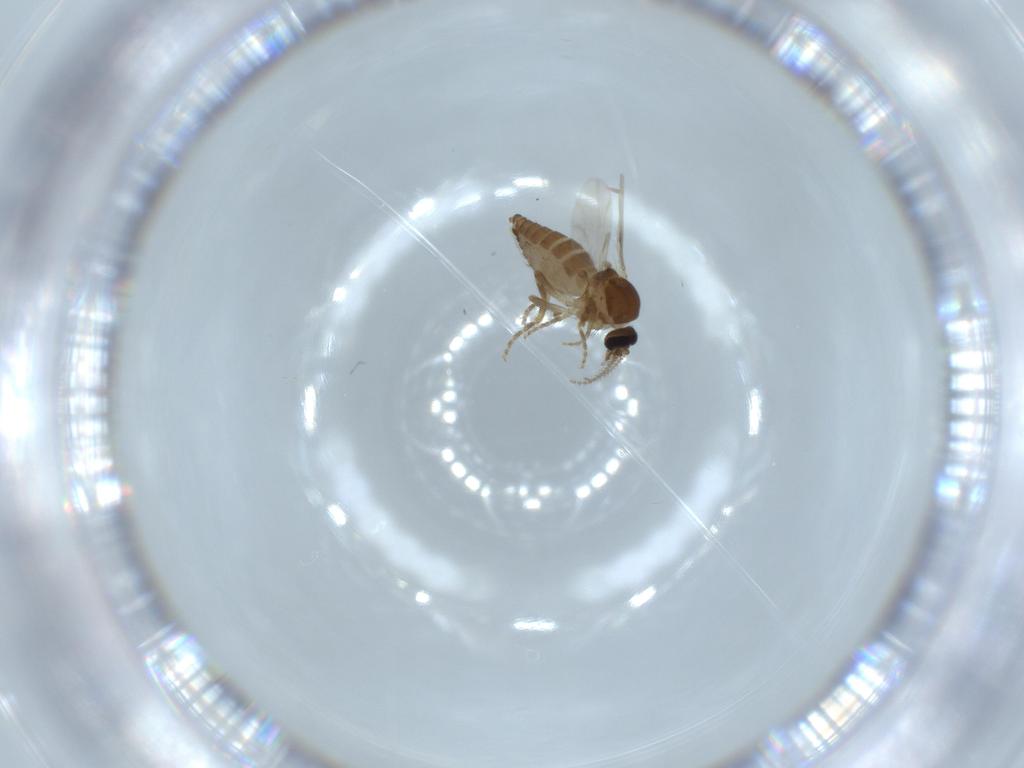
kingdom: Animalia
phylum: Arthropoda
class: Insecta
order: Diptera
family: Ceratopogonidae
